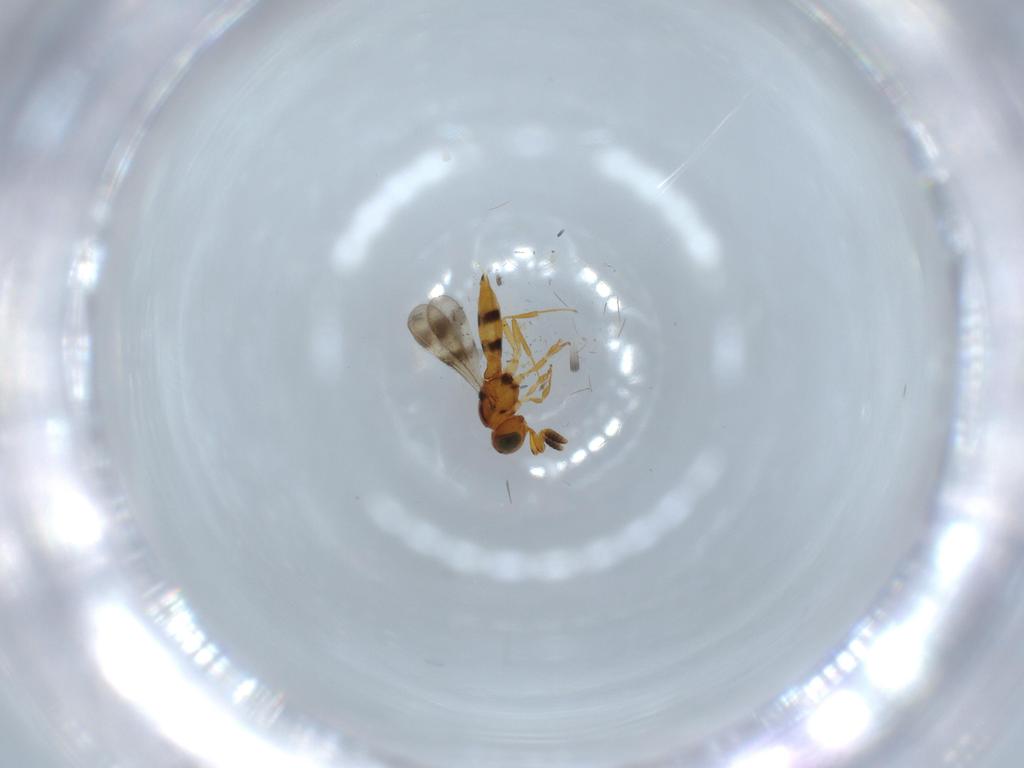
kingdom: Animalia
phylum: Arthropoda
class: Insecta
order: Hymenoptera
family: Scelionidae
